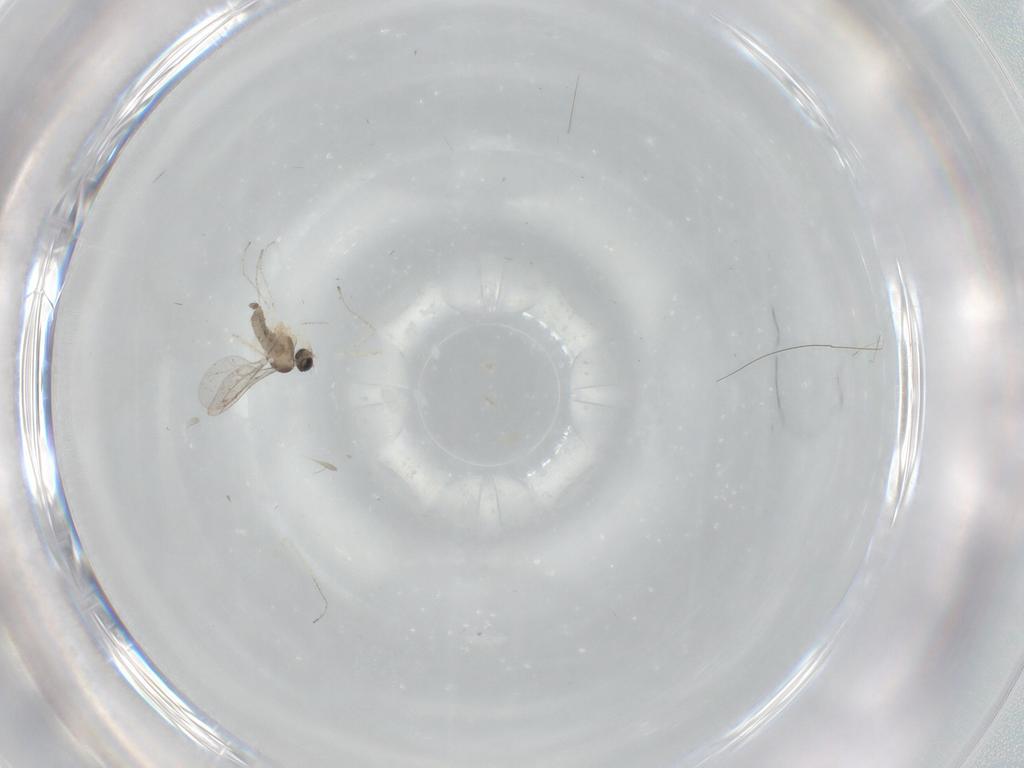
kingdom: Animalia
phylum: Arthropoda
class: Insecta
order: Diptera
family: Cecidomyiidae
